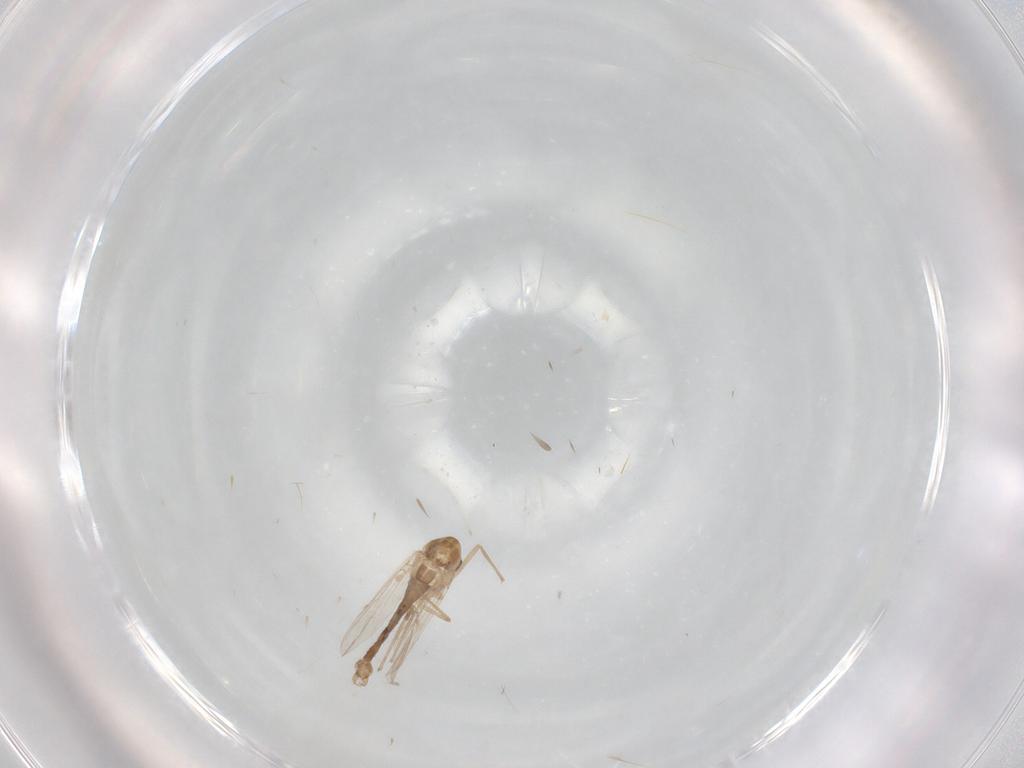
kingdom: Animalia
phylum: Arthropoda
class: Insecta
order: Diptera
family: Chironomidae
